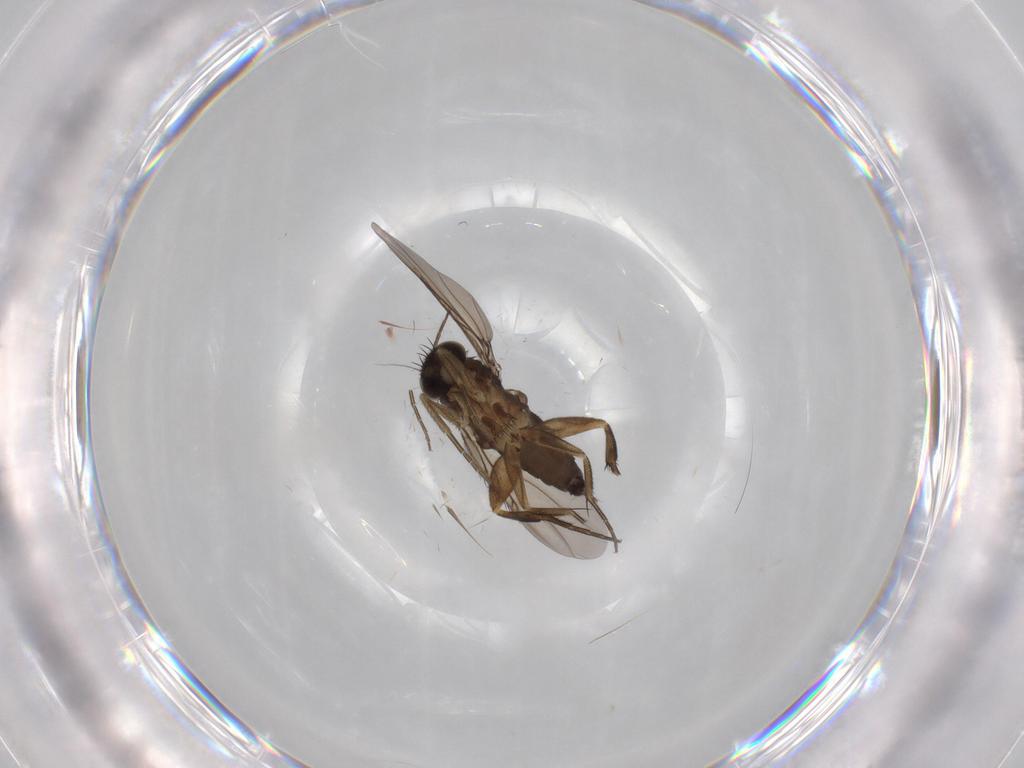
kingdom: Animalia
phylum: Arthropoda
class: Insecta
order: Diptera
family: Phoridae
